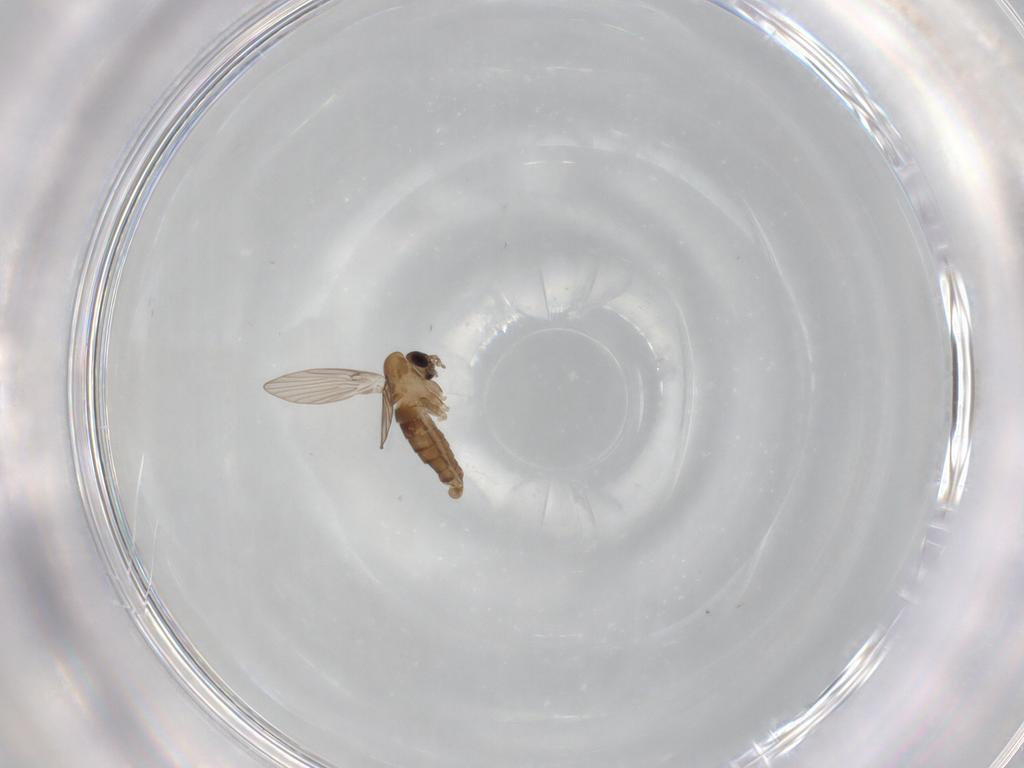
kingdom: Animalia
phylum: Arthropoda
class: Insecta
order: Diptera
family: Psychodidae
